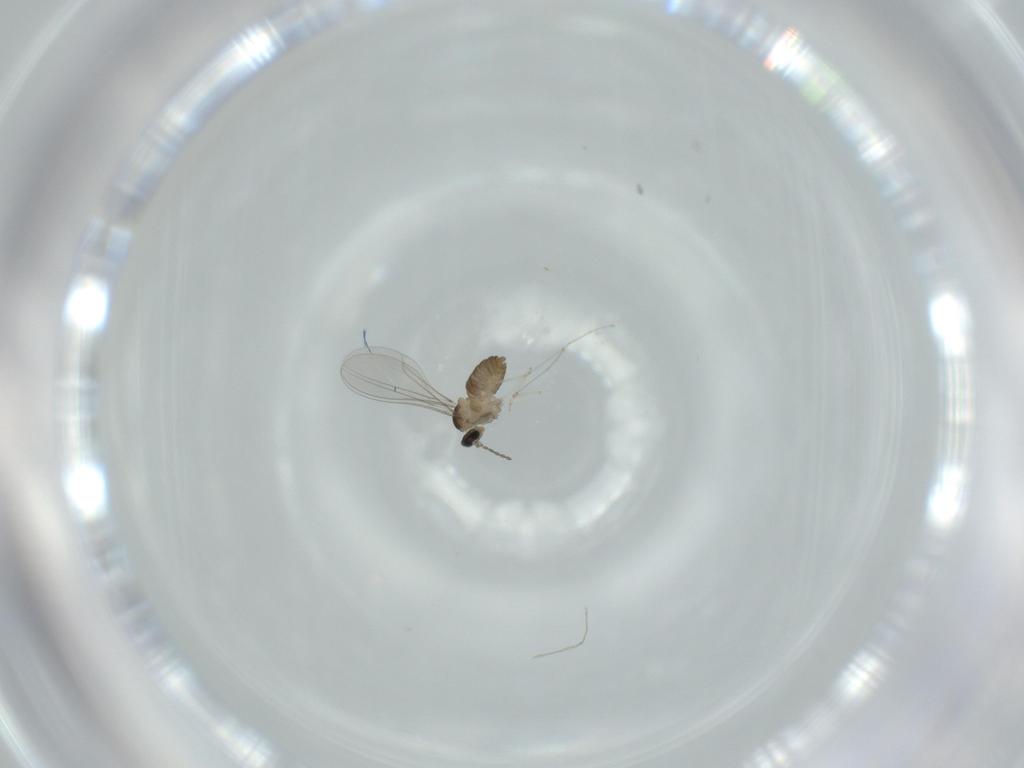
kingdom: Animalia
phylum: Arthropoda
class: Insecta
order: Diptera
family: Cecidomyiidae
